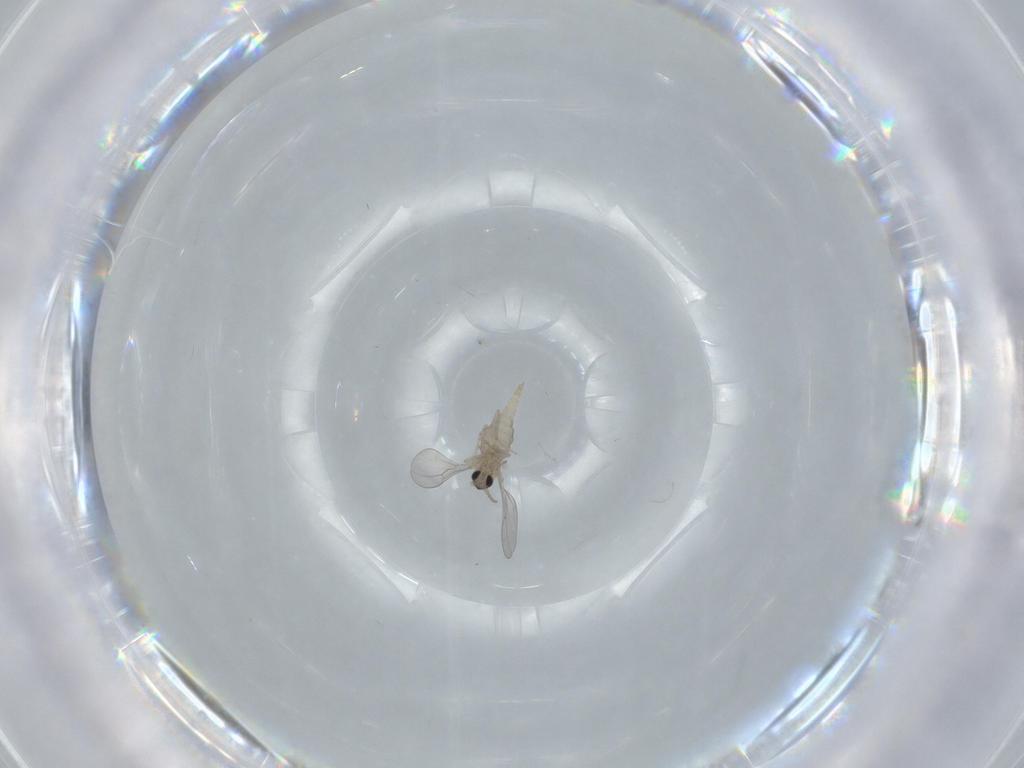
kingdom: Animalia
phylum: Arthropoda
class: Insecta
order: Diptera
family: Cecidomyiidae
